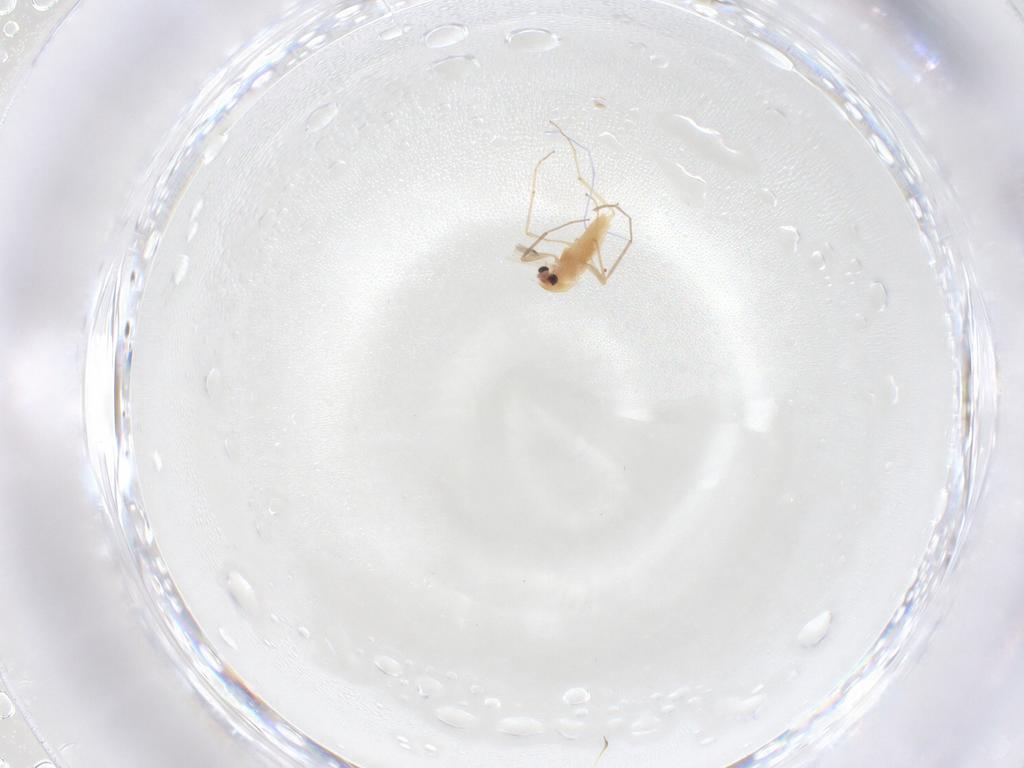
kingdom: Animalia
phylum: Arthropoda
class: Insecta
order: Diptera
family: Chironomidae
